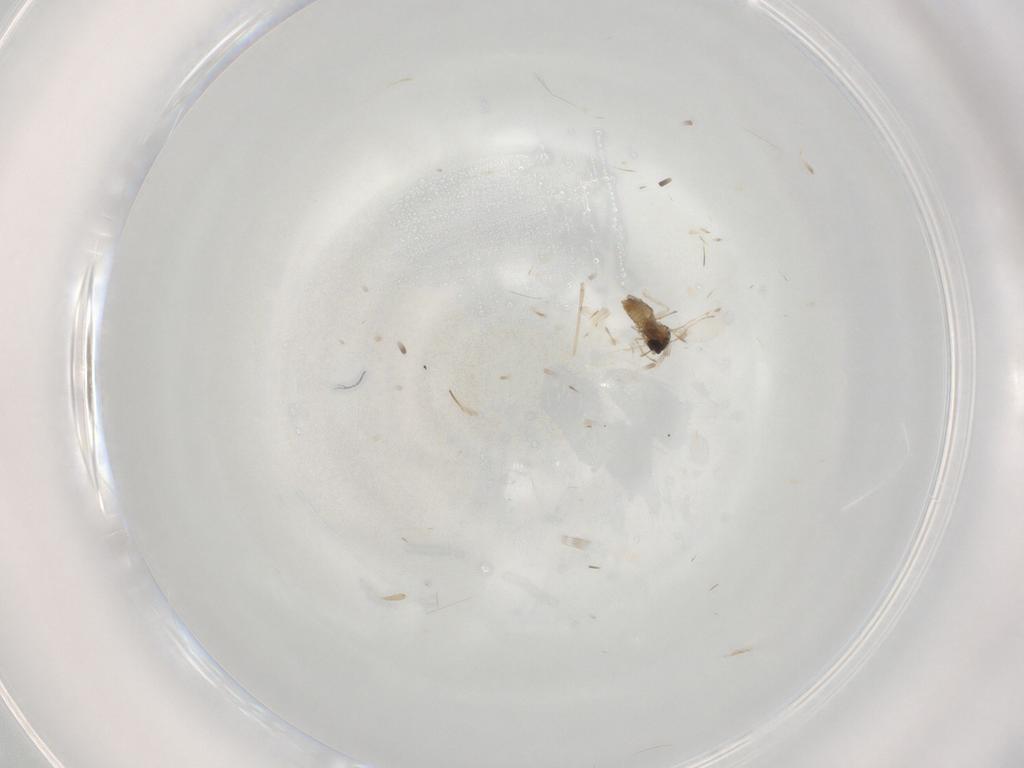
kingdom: Animalia
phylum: Arthropoda
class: Insecta
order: Diptera
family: Cecidomyiidae
